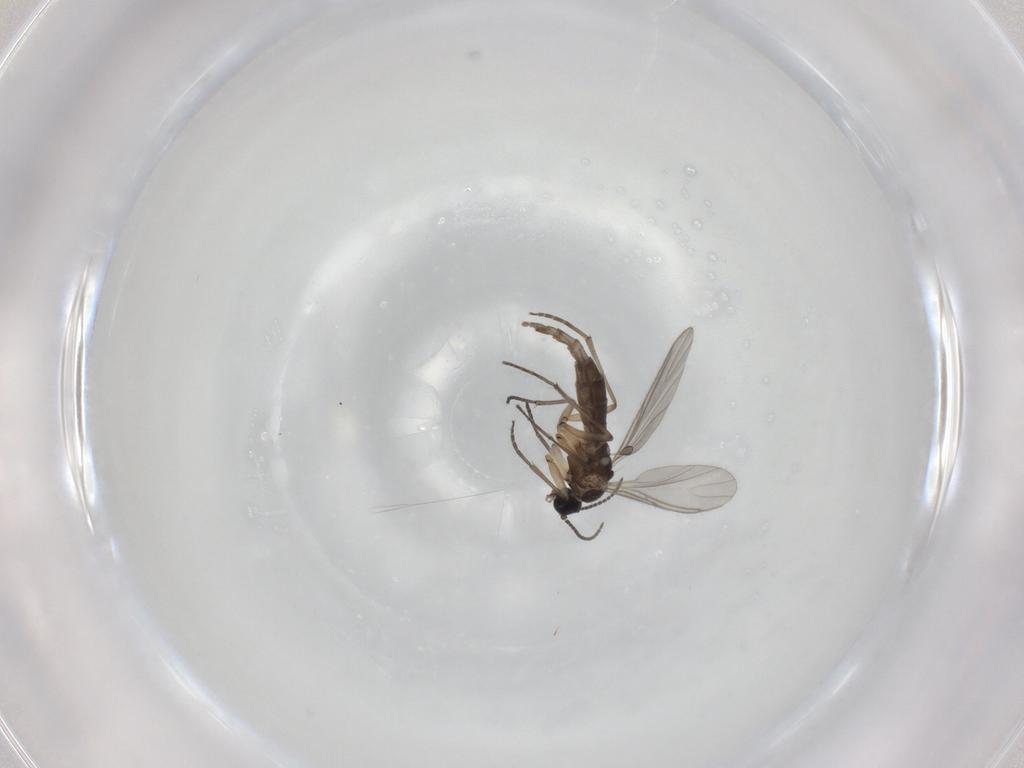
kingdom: Animalia
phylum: Arthropoda
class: Insecta
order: Diptera
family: Sciaridae
